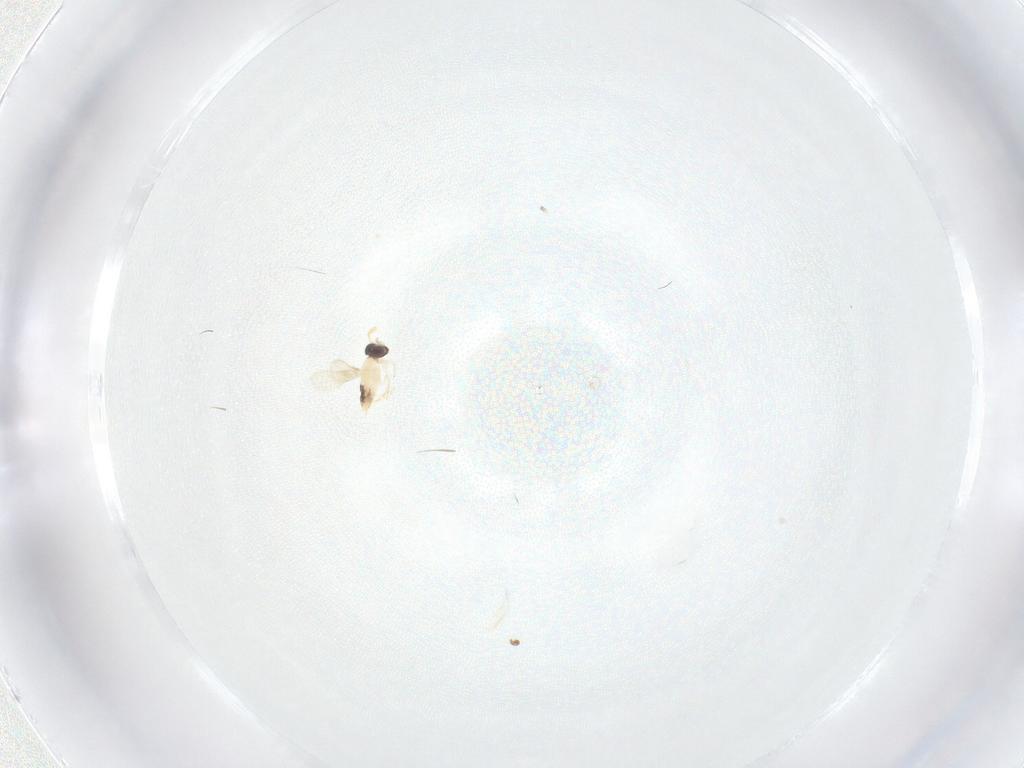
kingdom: Animalia
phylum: Arthropoda
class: Insecta
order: Hymenoptera
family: Aphelinidae
